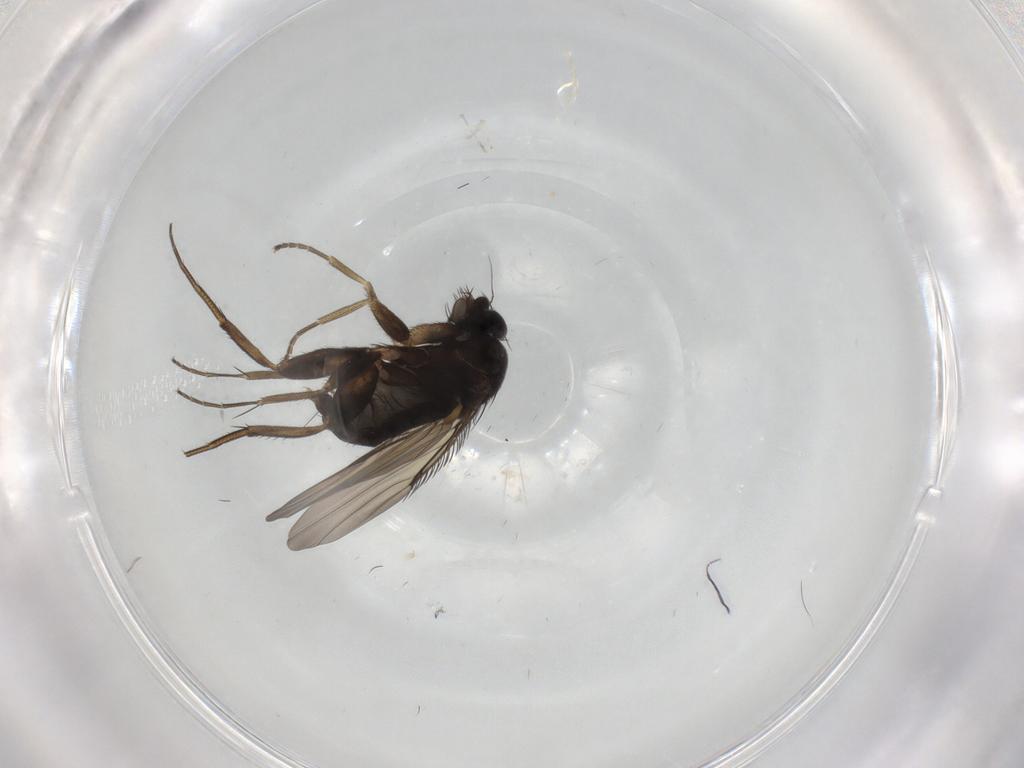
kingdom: Animalia
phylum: Arthropoda
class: Insecta
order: Diptera
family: Phoridae
